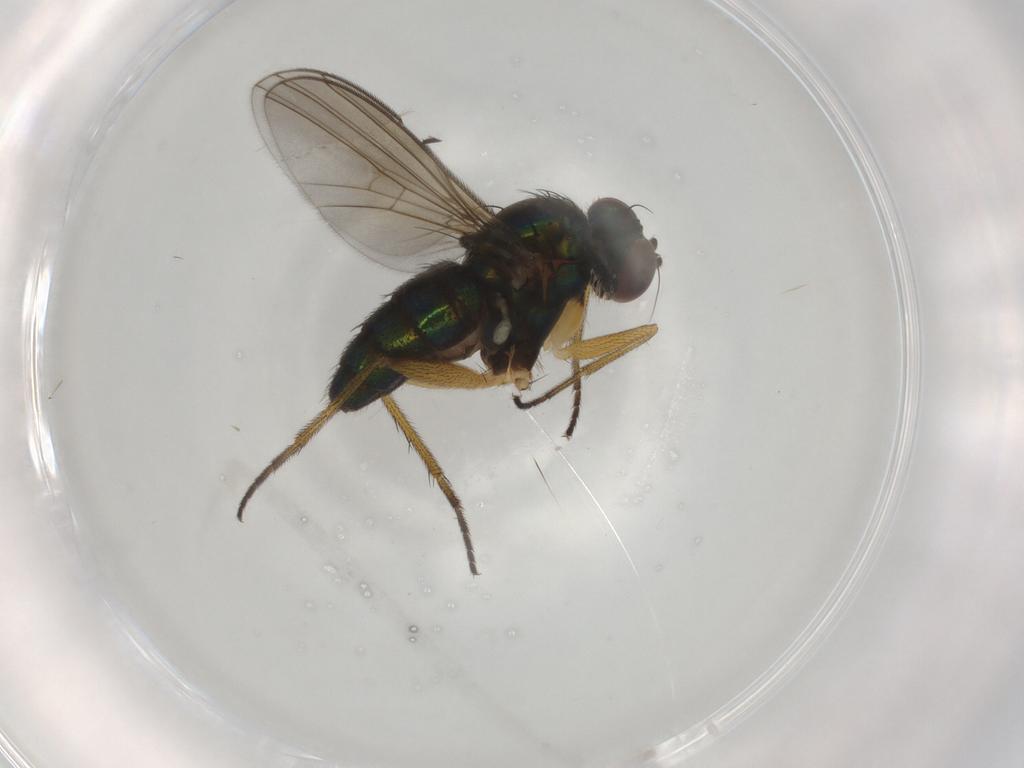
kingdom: Animalia
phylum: Arthropoda
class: Insecta
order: Diptera
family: Dolichopodidae
